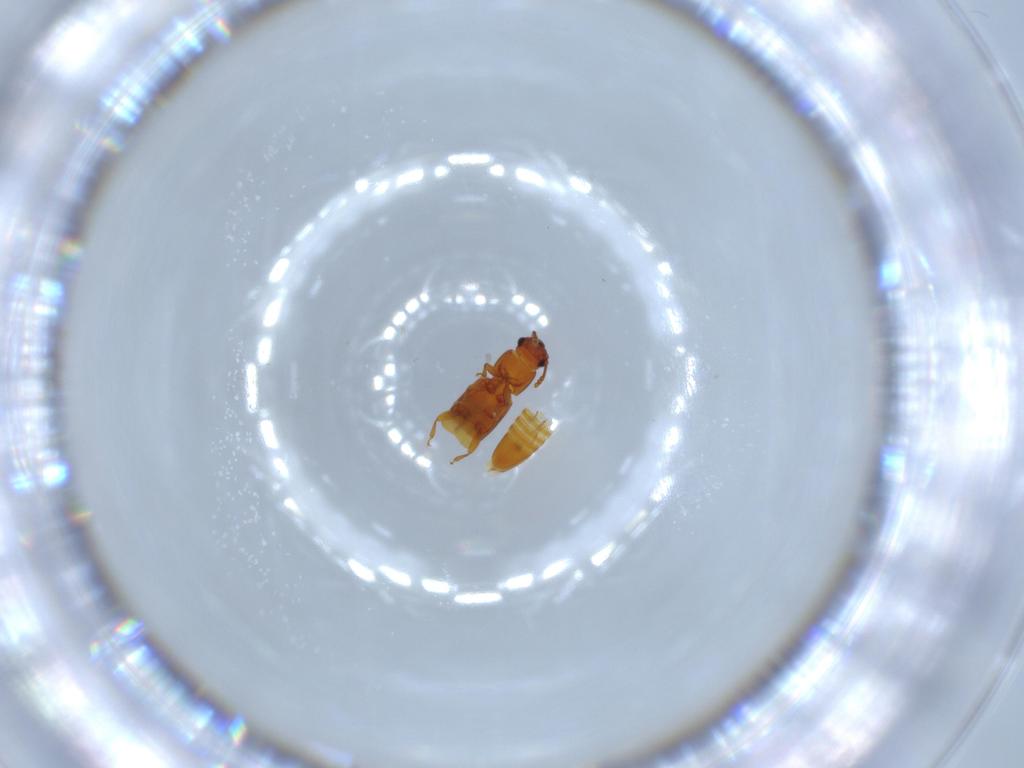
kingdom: Animalia
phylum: Arthropoda
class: Insecta
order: Coleoptera
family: Smicripidae
